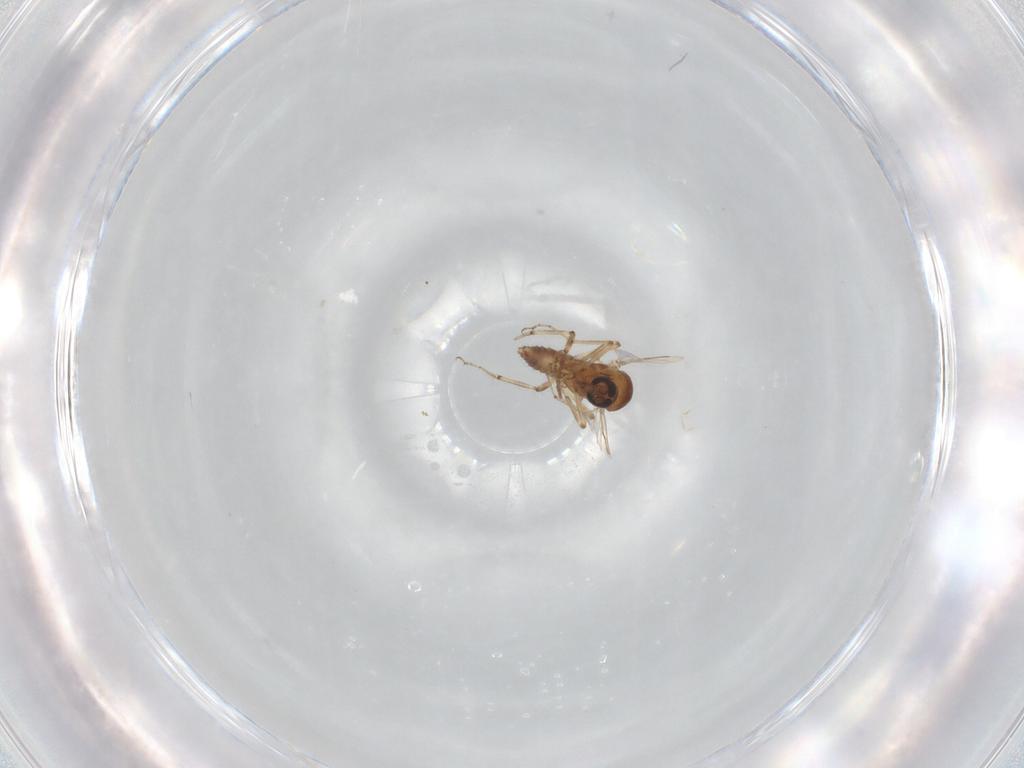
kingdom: Animalia
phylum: Arthropoda
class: Insecta
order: Diptera
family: Ceratopogonidae
